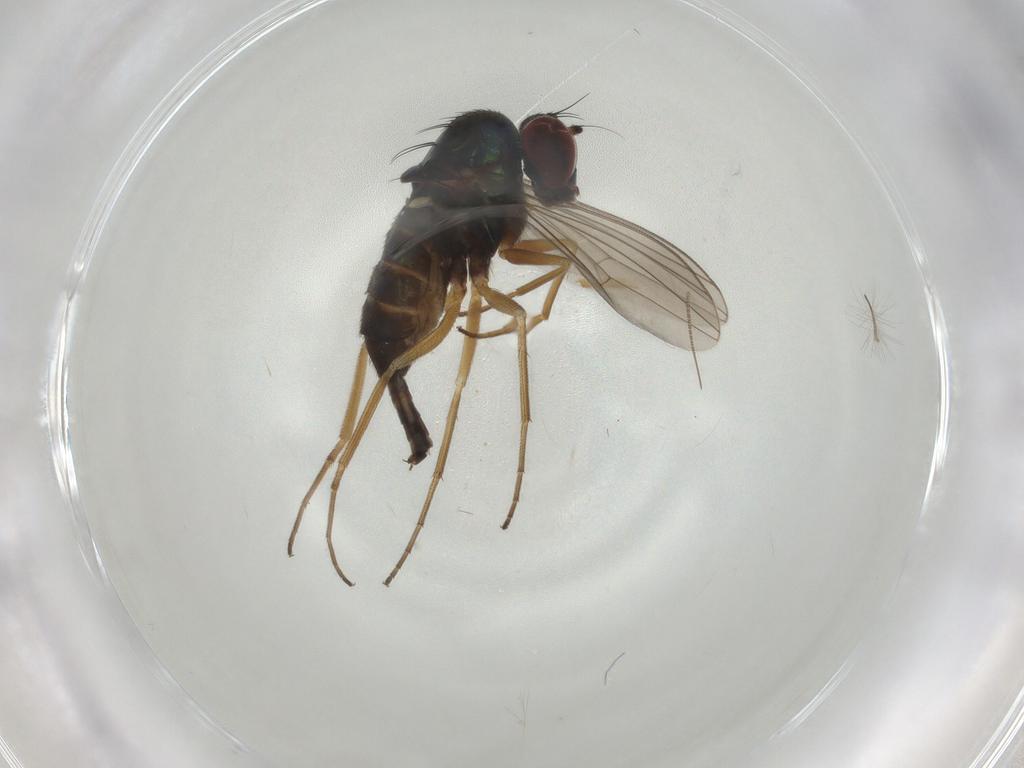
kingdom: Animalia
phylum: Arthropoda
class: Insecta
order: Diptera
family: Dolichopodidae
